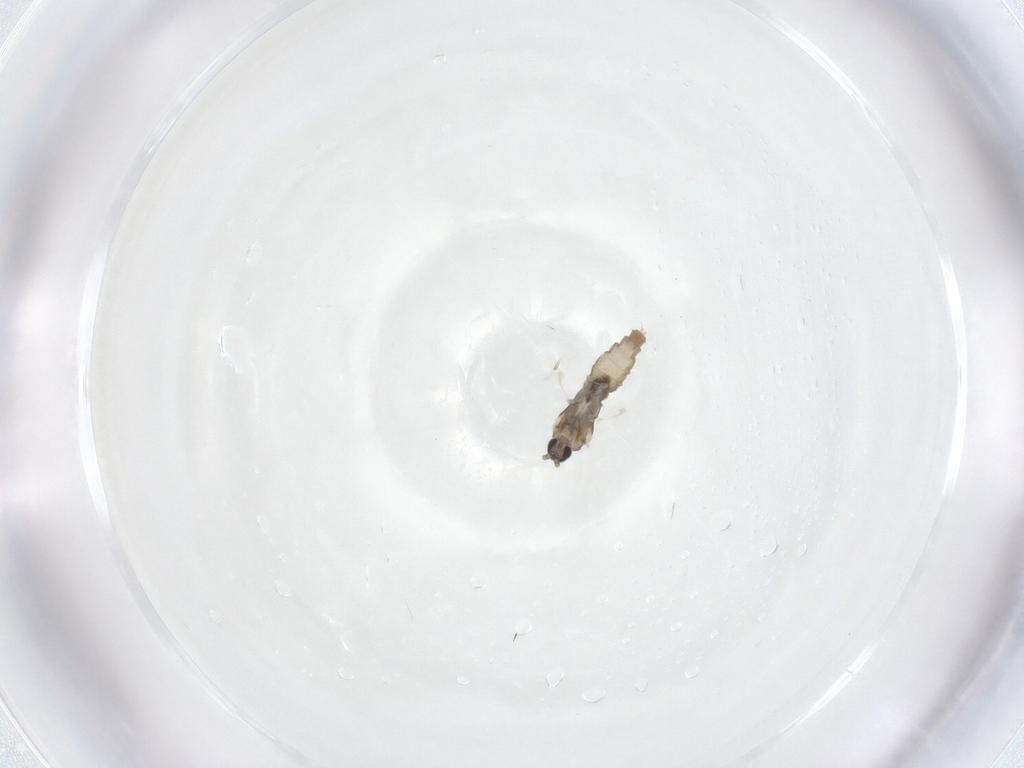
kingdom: Animalia
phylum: Arthropoda
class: Insecta
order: Diptera
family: Cecidomyiidae
